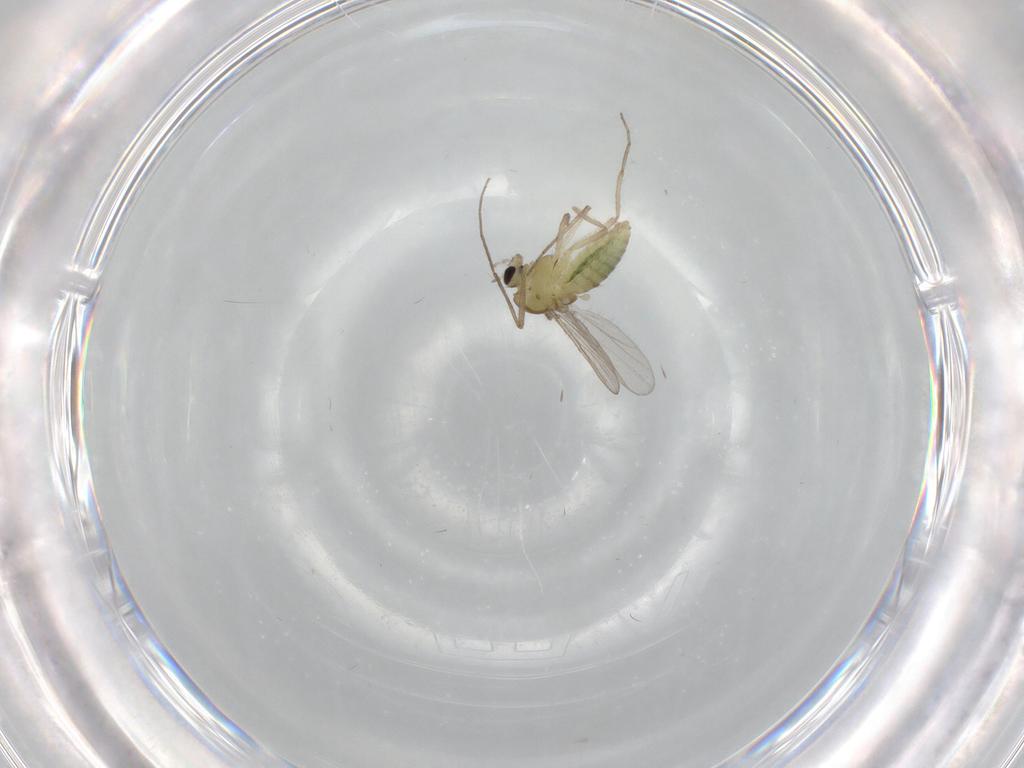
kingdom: Animalia
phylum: Arthropoda
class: Insecta
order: Diptera
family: Chironomidae
